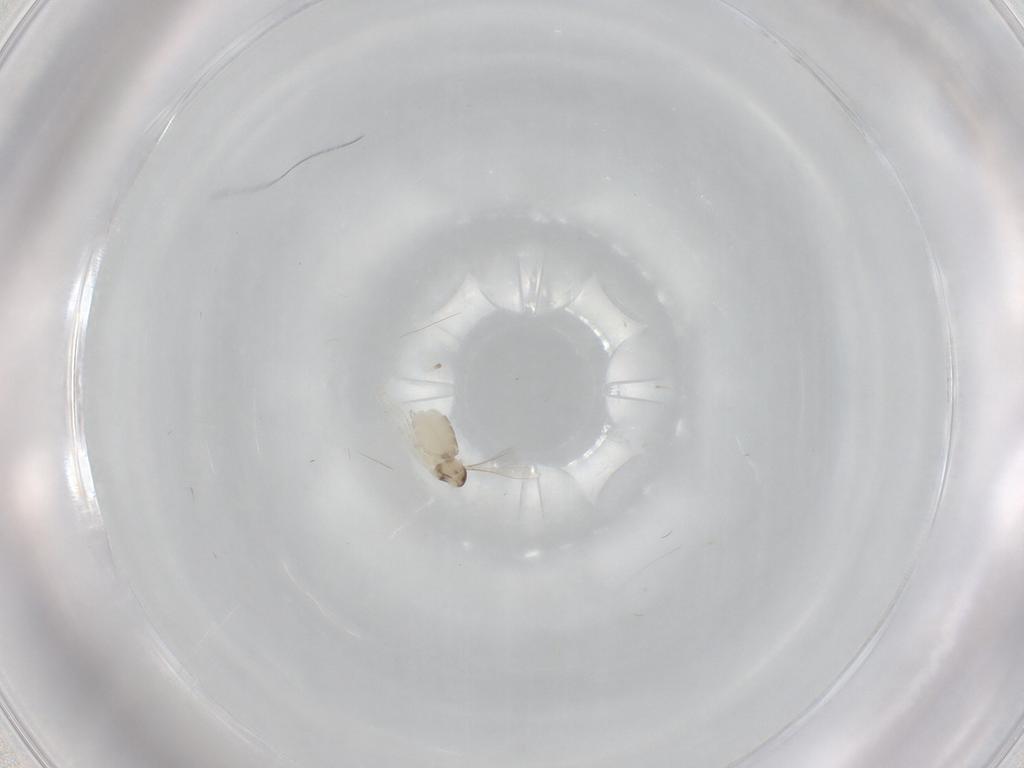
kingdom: Animalia
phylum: Arthropoda
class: Insecta
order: Diptera
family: Cecidomyiidae
